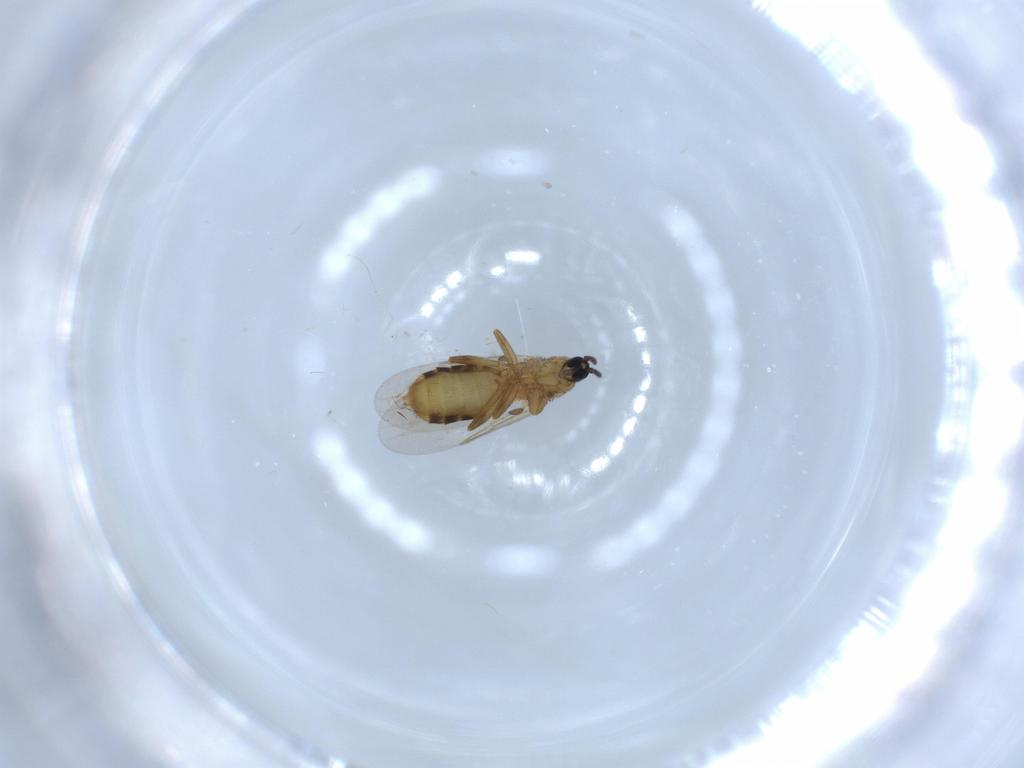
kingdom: Animalia
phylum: Arthropoda
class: Insecta
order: Diptera
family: Scatopsidae
